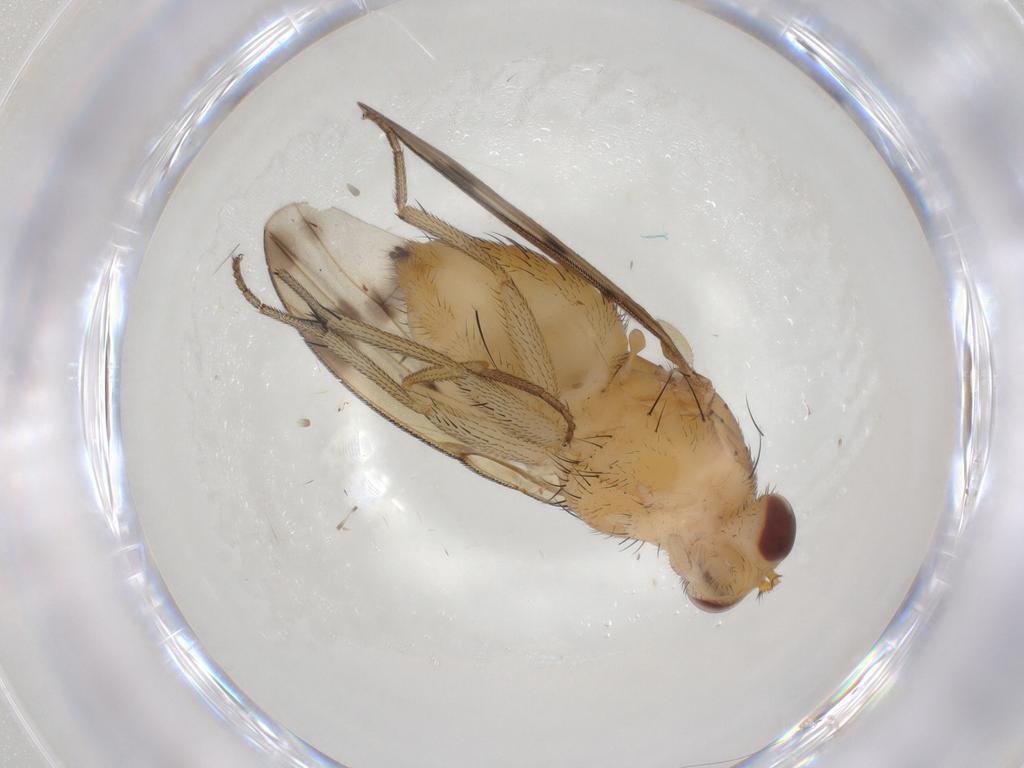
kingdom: Animalia
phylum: Arthropoda
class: Insecta
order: Diptera
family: Lauxaniidae
